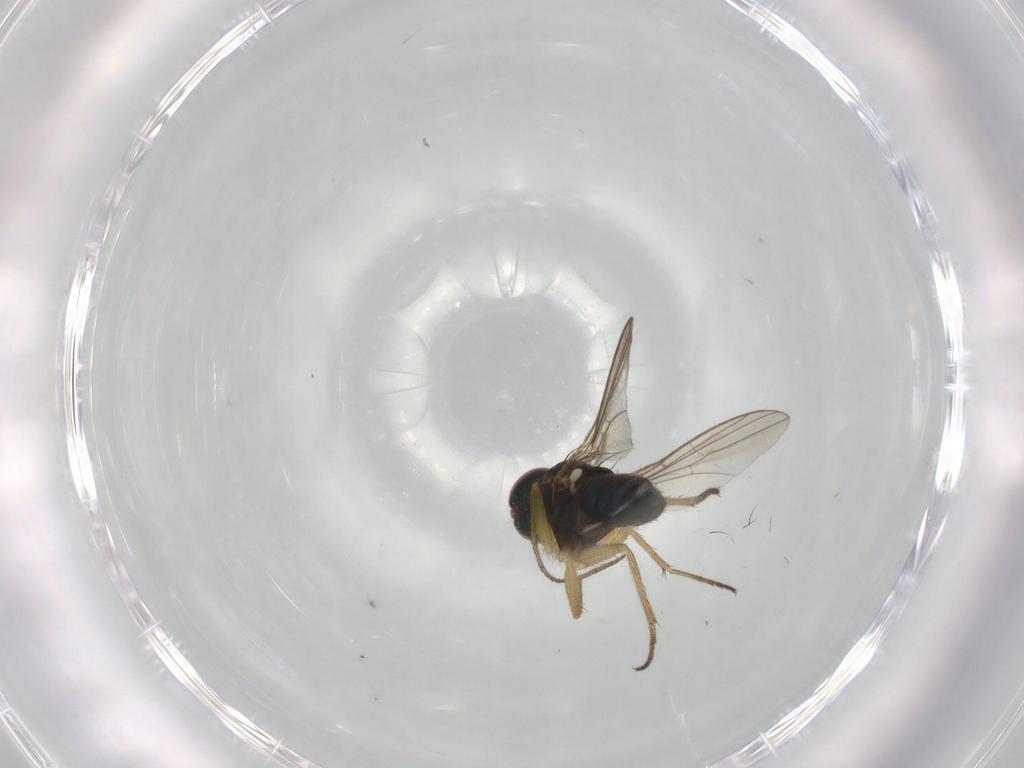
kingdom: Animalia
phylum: Arthropoda
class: Insecta
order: Diptera
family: Dolichopodidae
